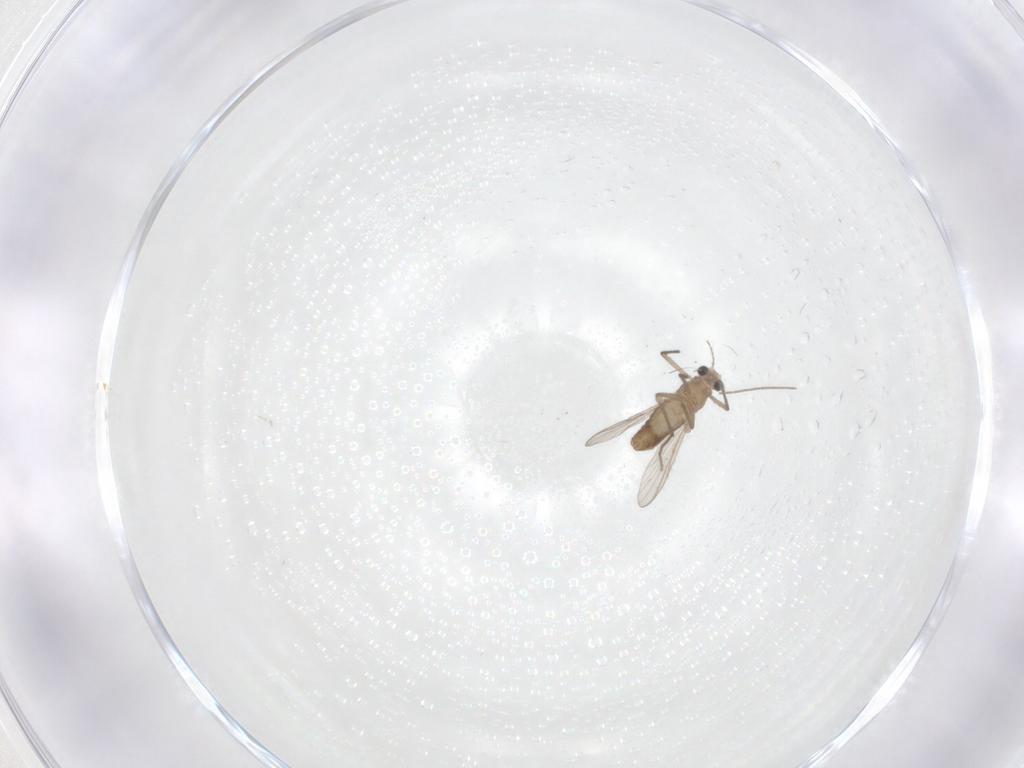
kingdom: Animalia
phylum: Arthropoda
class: Insecta
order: Diptera
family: Chironomidae
